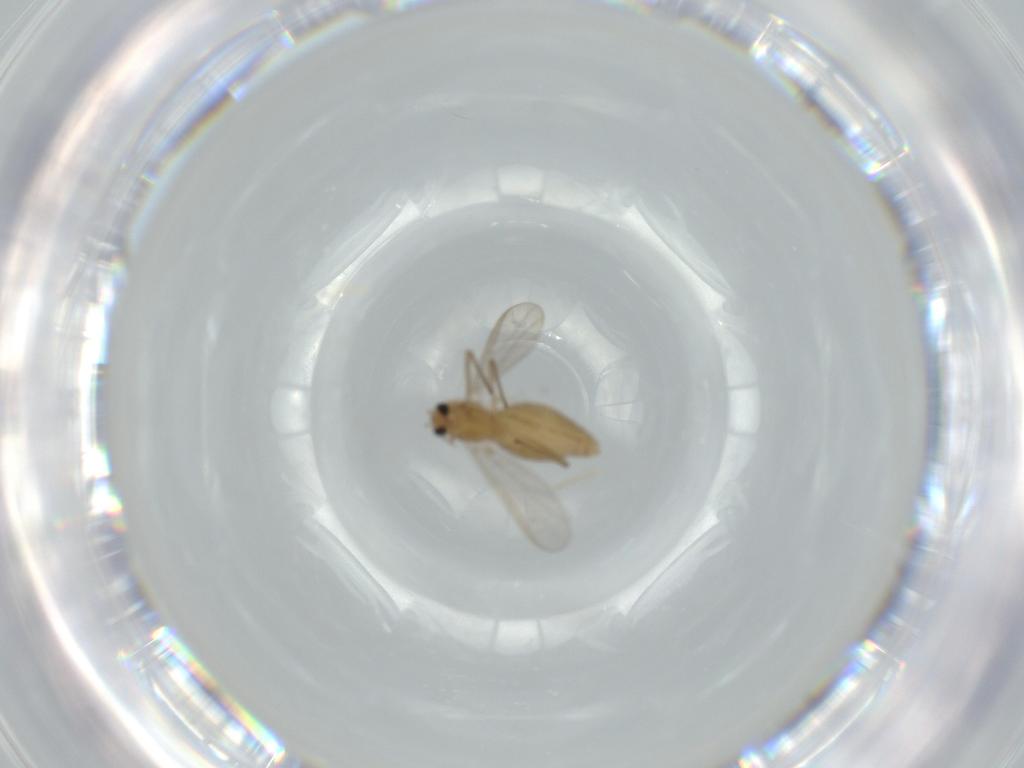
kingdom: Animalia
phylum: Arthropoda
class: Insecta
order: Diptera
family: Chironomidae
